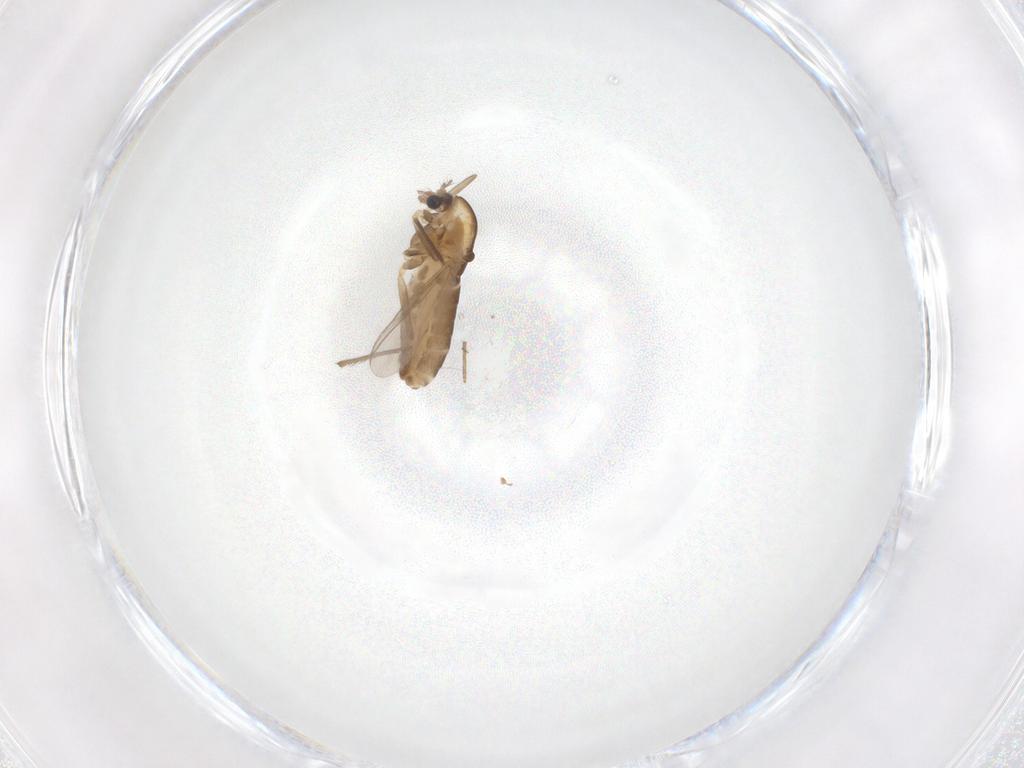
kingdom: Animalia
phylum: Arthropoda
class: Insecta
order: Diptera
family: Chironomidae
